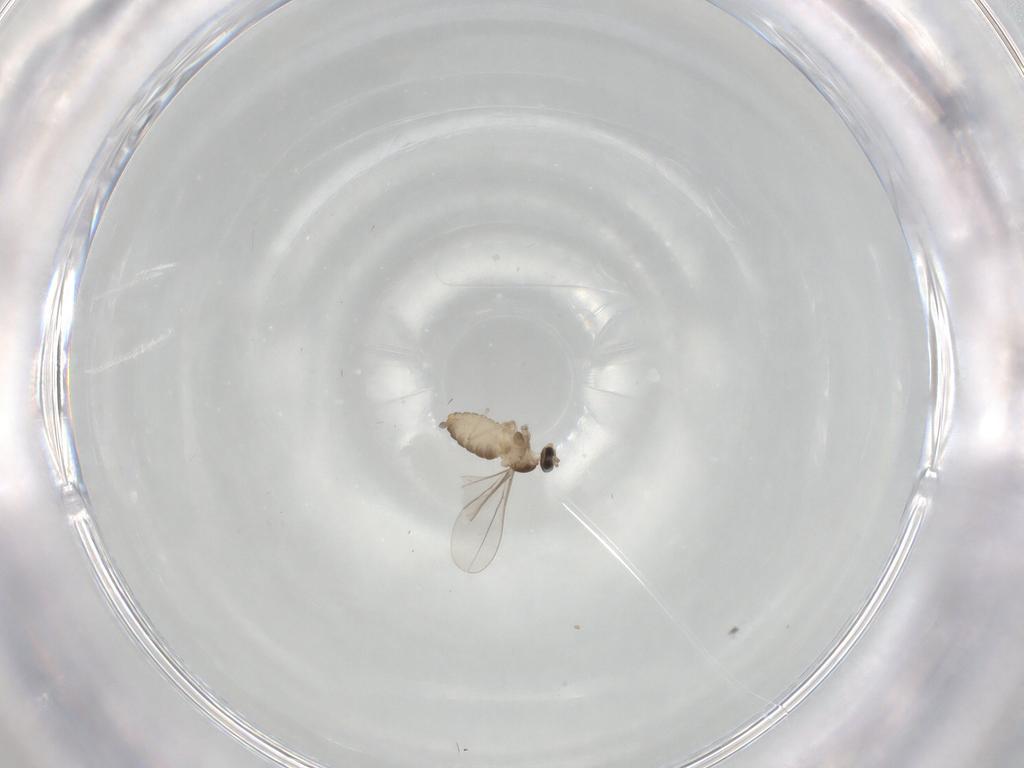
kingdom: Animalia
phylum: Arthropoda
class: Insecta
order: Diptera
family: Cecidomyiidae
